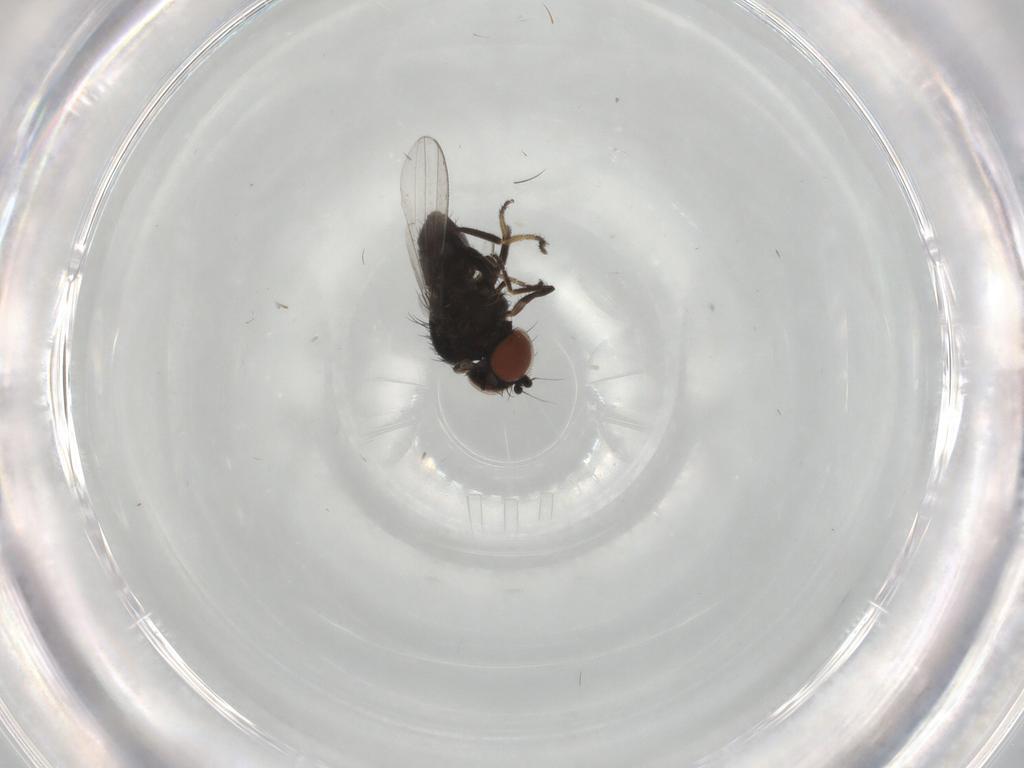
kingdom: Animalia
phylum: Arthropoda
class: Insecta
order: Diptera
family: Milichiidae
